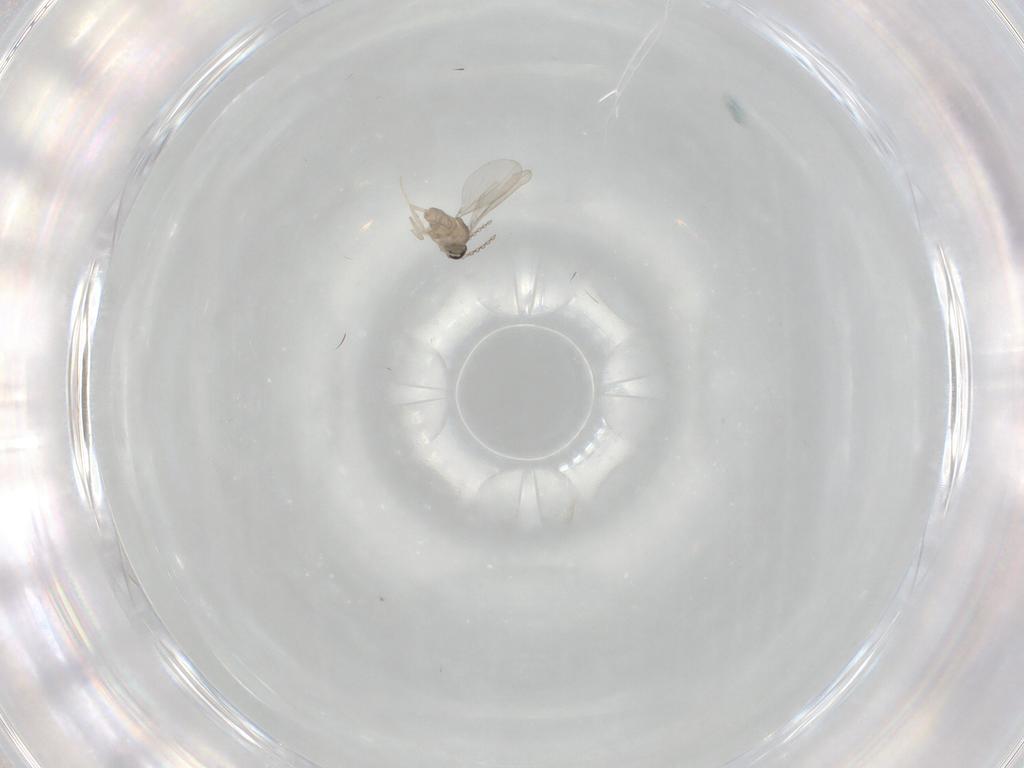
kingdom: Animalia
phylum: Arthropoda
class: Insecta
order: Diptera
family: Cecidomyiidae
